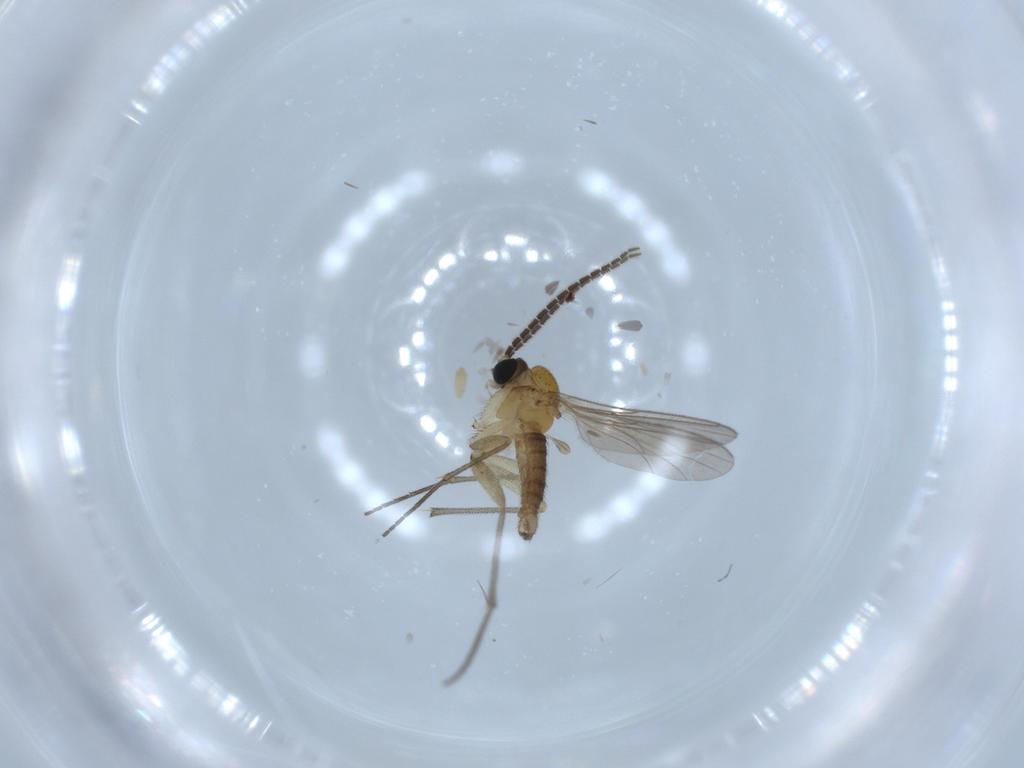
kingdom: Animalia
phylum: Arthropoda
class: Insecta
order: Diptera
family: Sciaridae
